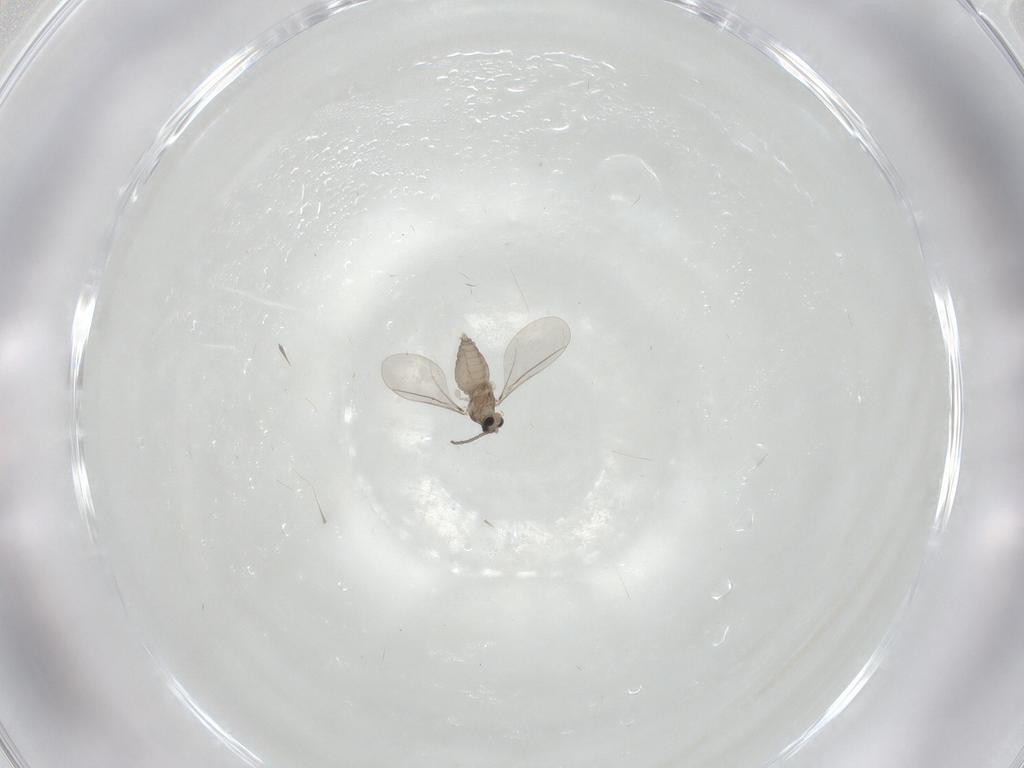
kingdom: Animalia
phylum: Arthropoda
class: Insecta
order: Diptera
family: Cecidomyiidae
